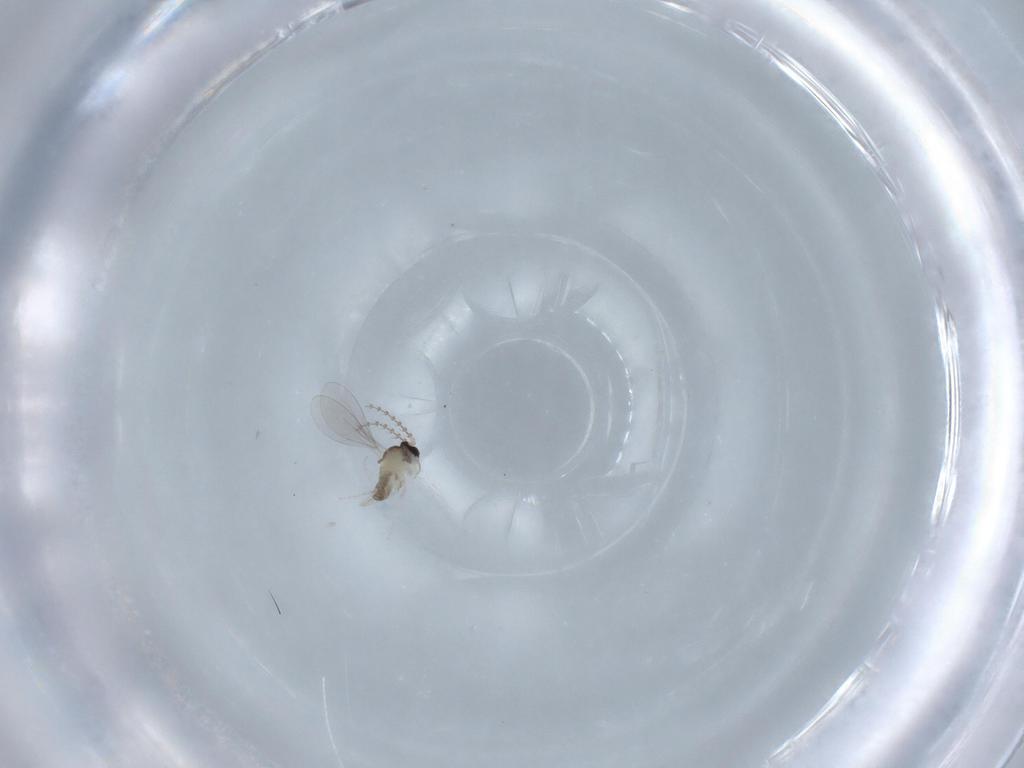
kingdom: Animalia
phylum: Arthropoda
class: Insecta
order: Diptera
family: Cecidomyiidae
